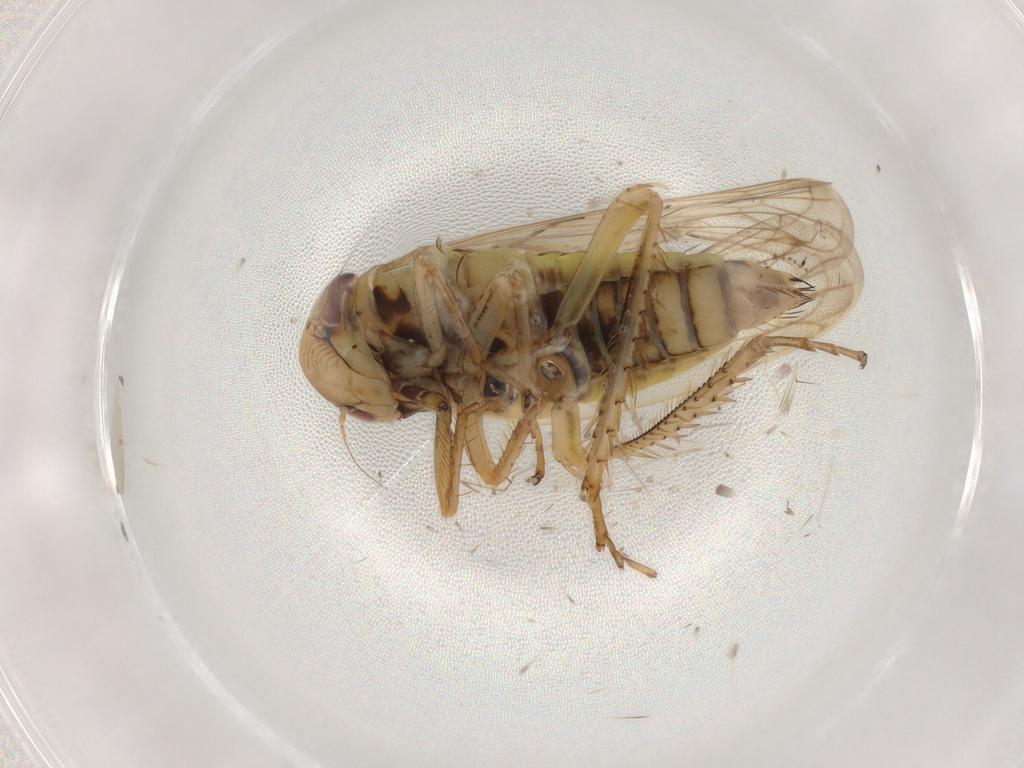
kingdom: Animalia
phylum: Arthropoda
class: Insecta
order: Hemiptera
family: Cicadellidae
